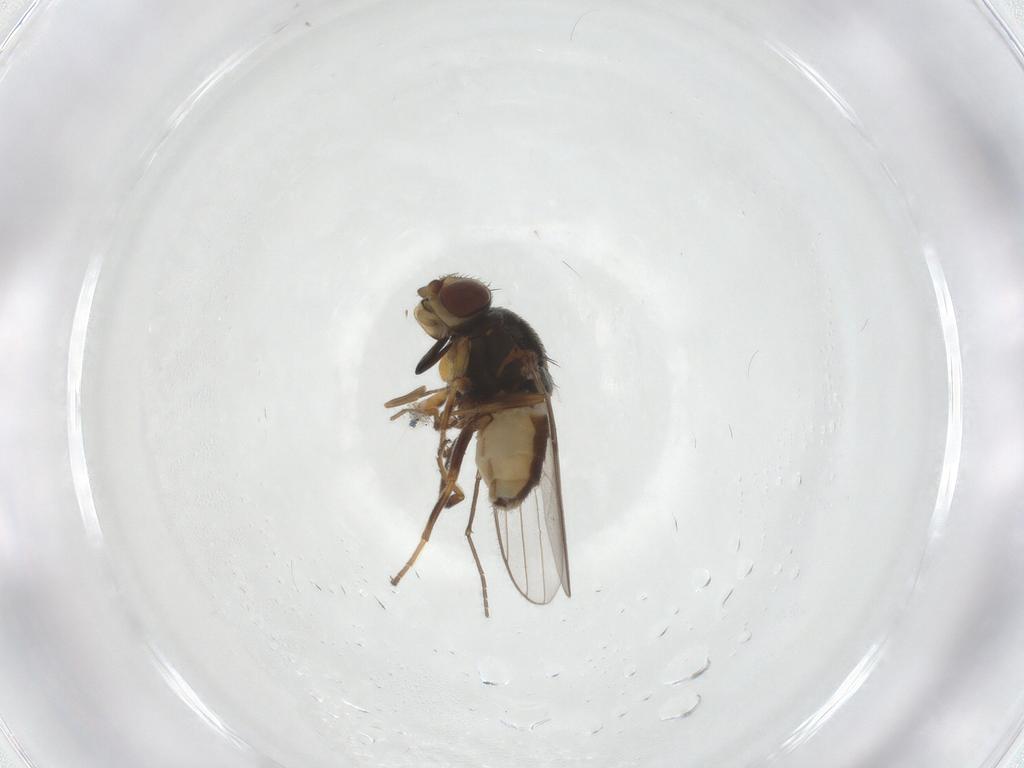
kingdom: Animalia
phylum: Arthropoda
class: Insecta
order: Diptera
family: Chloropidae
